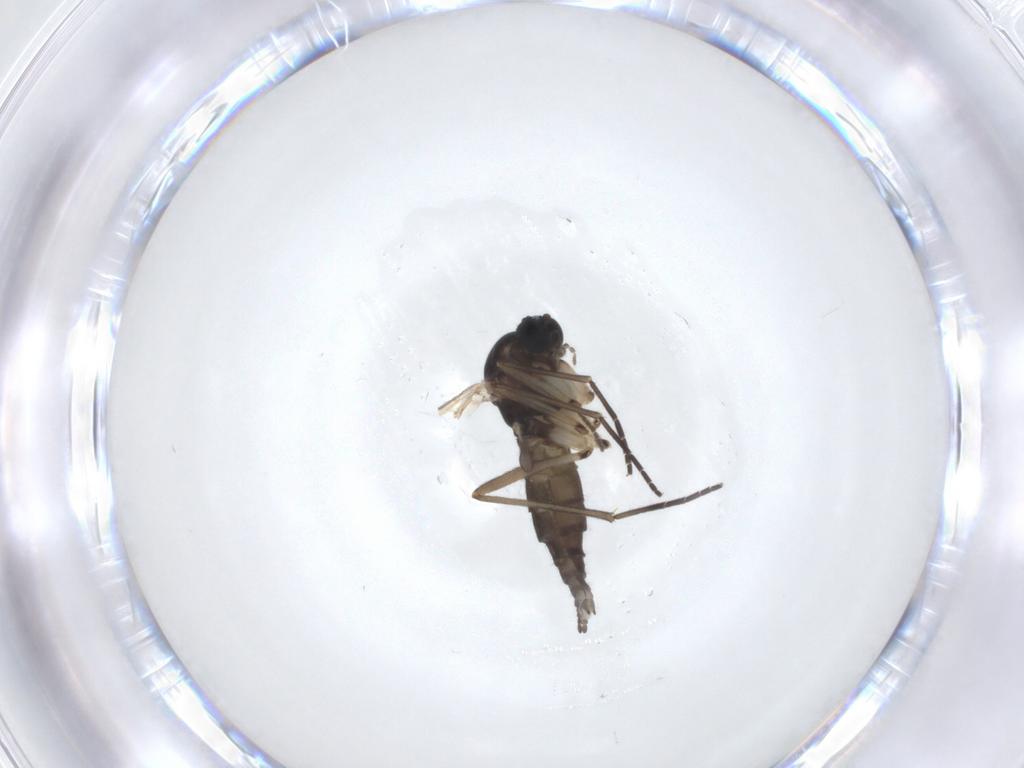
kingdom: Animalia
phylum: Arthropoda
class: Insecta
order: Diptera
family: Sciaridae
